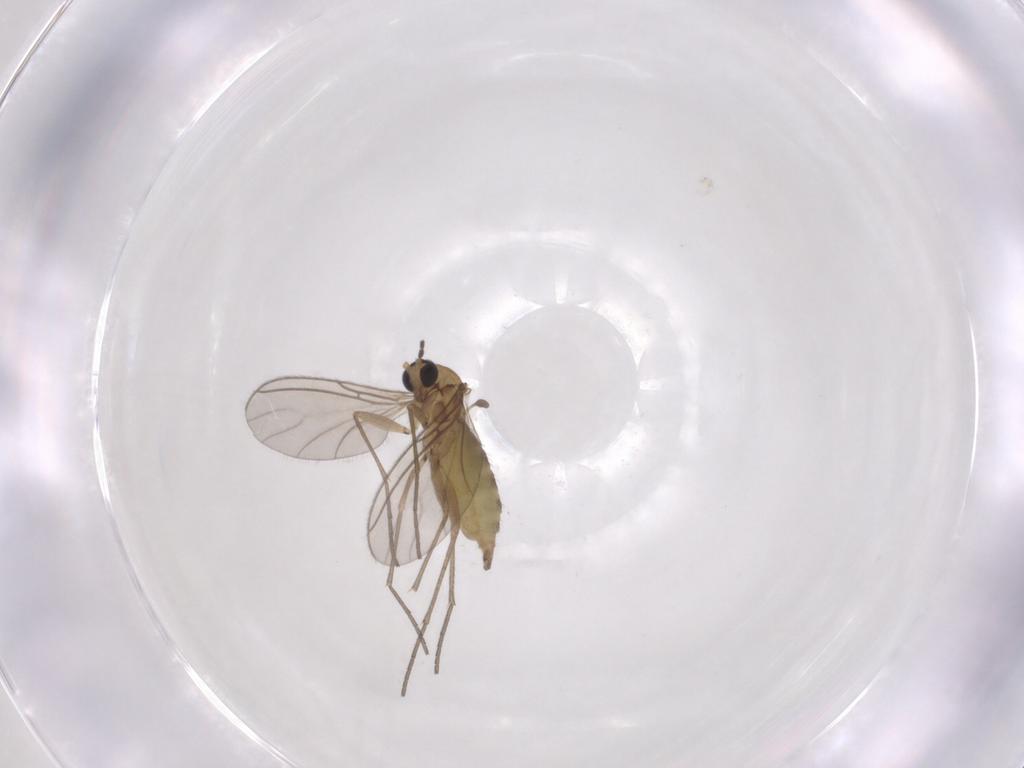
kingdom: Animalia
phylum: Arthropoda
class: Insecta
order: Diptera
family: Sciaridae
